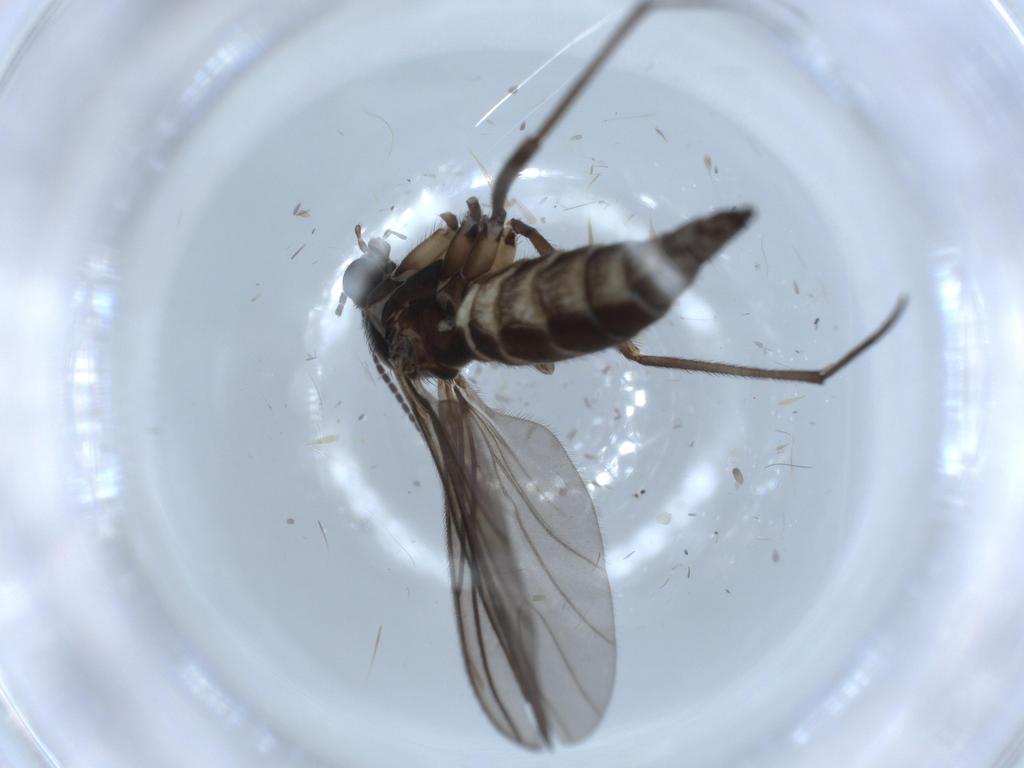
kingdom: Animalia
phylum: Arthropoda
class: Insecta
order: Diptera
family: Sciaridae
